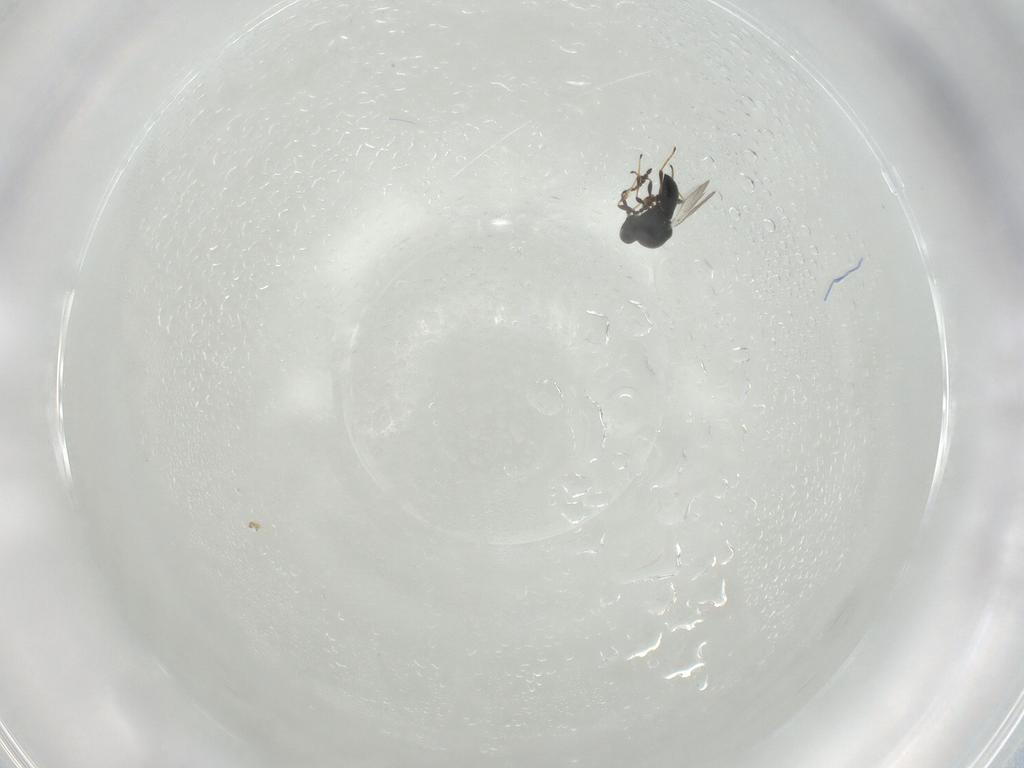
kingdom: Animalia
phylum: Arthropoda
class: Insecta
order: Hymenoptera
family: Platygastridae
